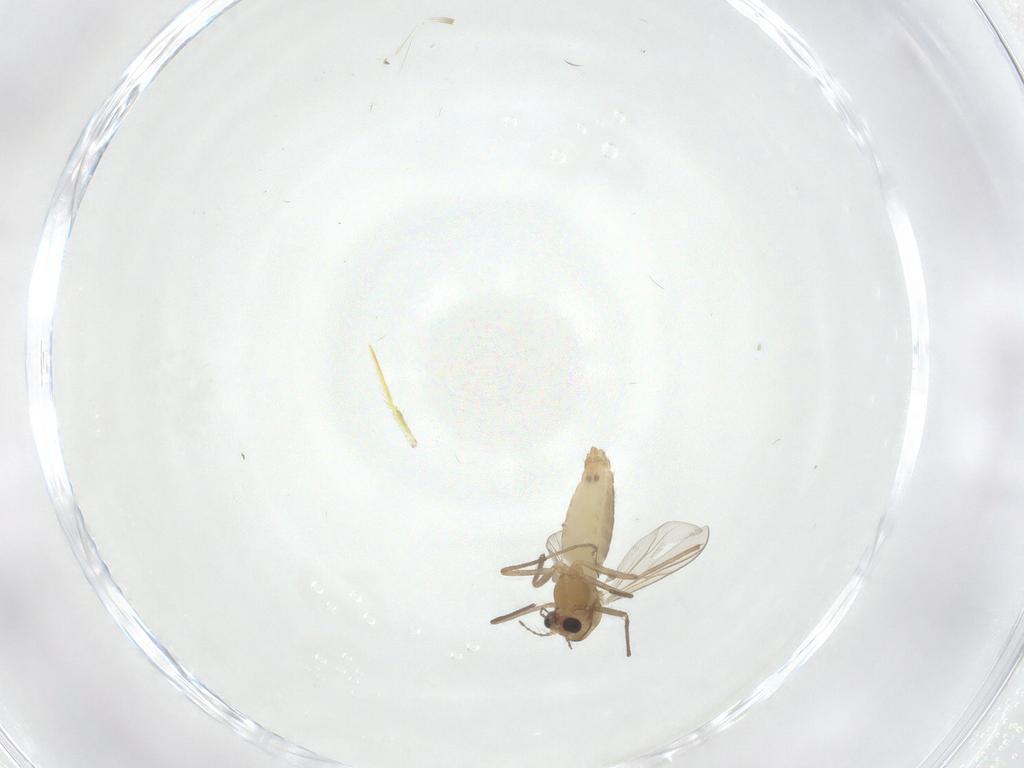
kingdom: Animalia
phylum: Arthropoda
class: Insecta
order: Diptera
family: Chironomidae
